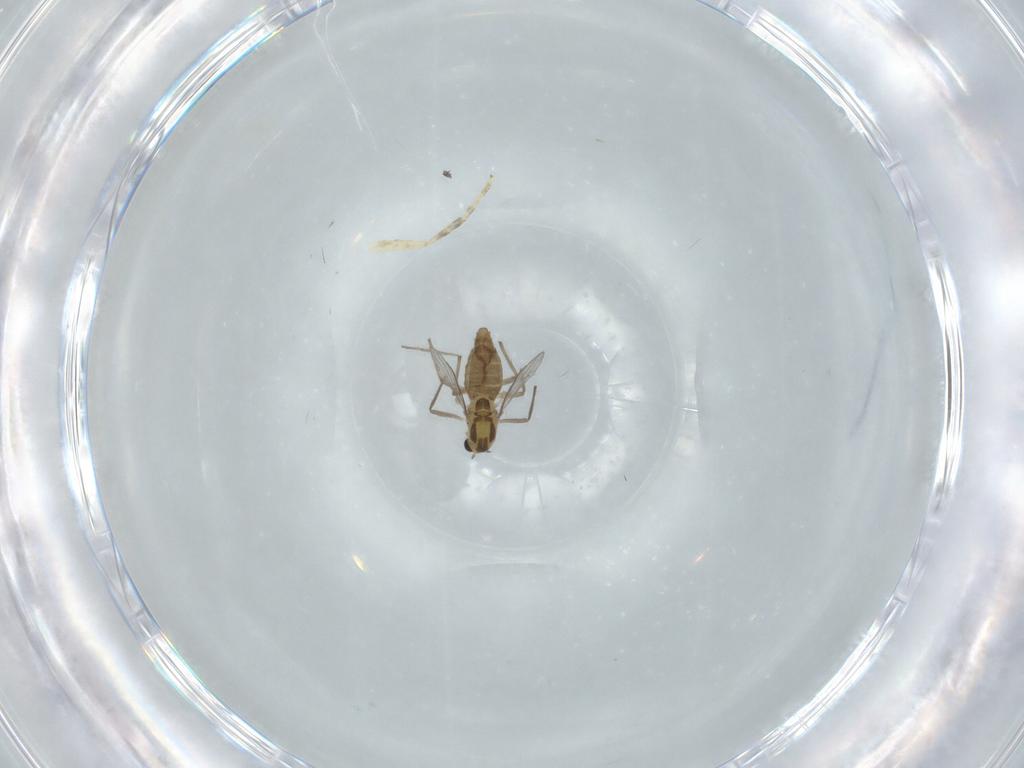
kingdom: Animalia
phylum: Arthropoda
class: Insecta
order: Diptera
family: Chironomidae
